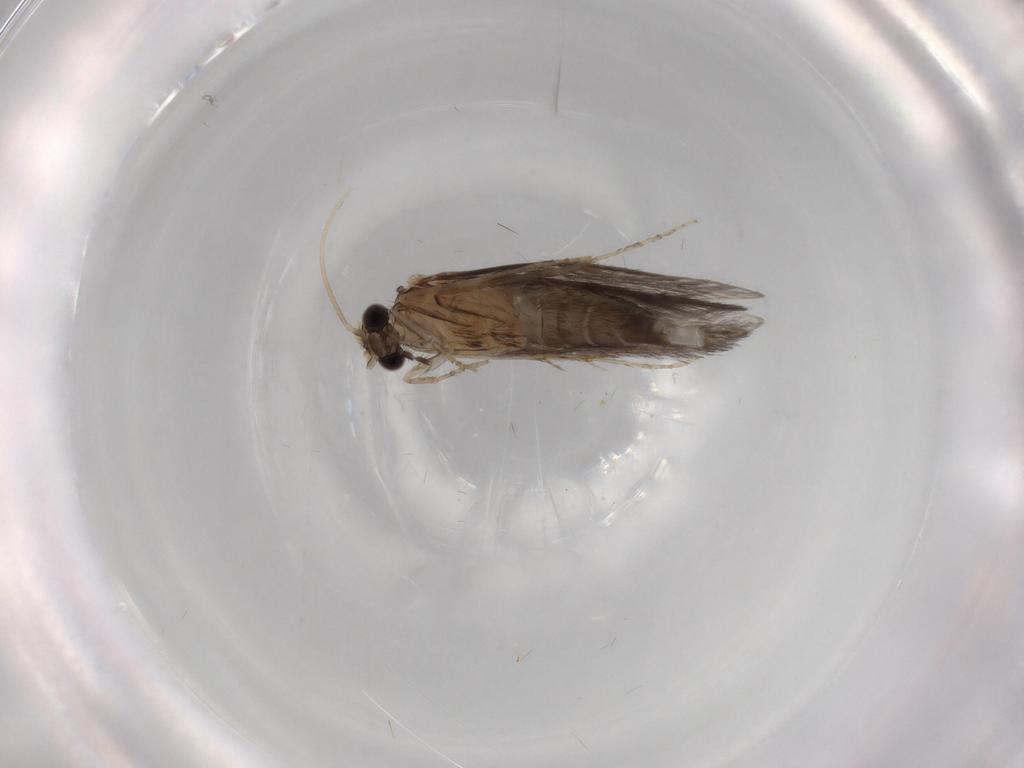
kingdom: Animalia
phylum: Arthropoda
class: Insecta
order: Trichoptera
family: Hydroptilidae
